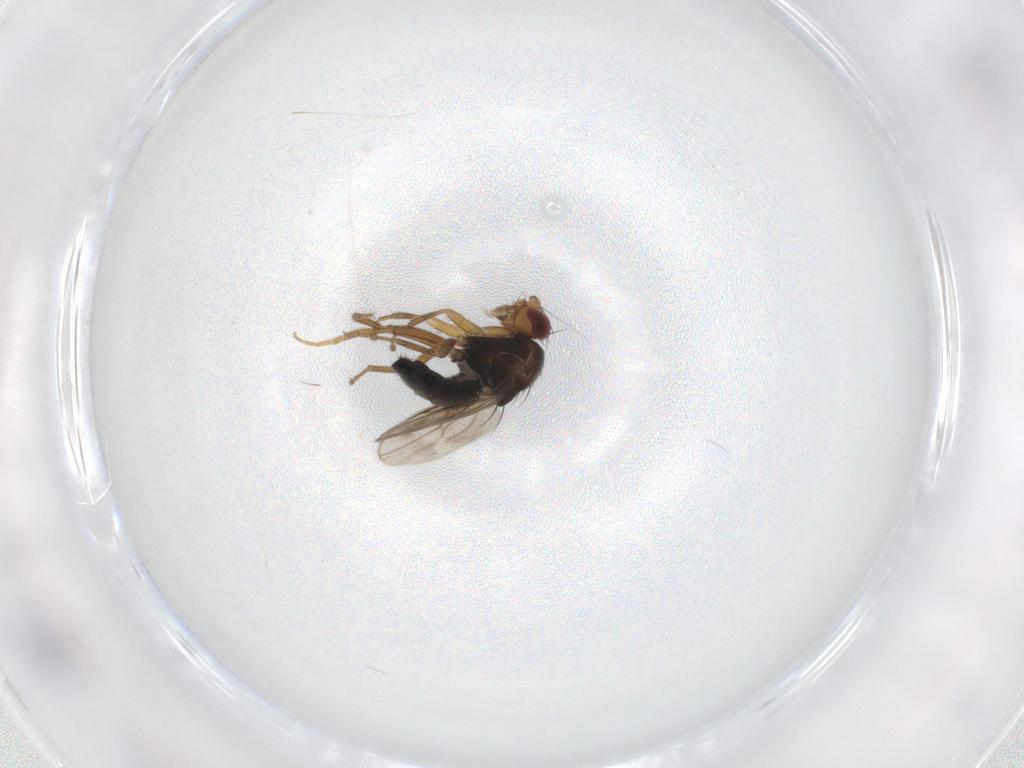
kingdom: Animalia
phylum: Arthropoda
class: Insecta
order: Diptera
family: Sphaeroceridae
